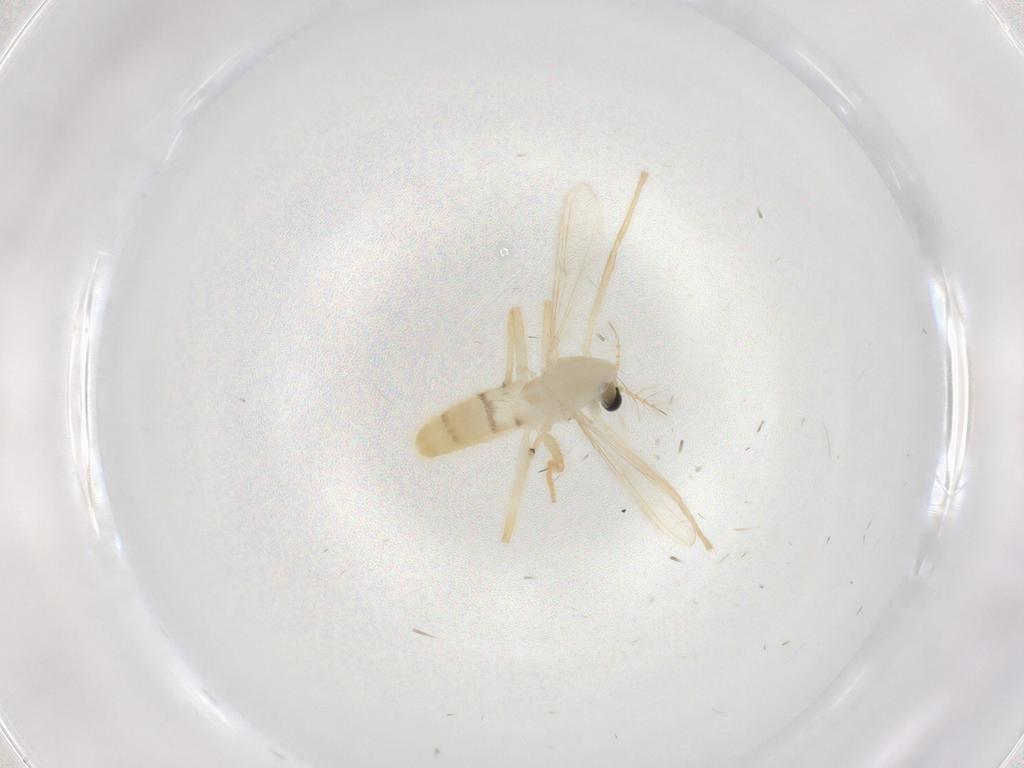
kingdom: Animalia
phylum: Arthropoda
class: Insecta
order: Diptera
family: Chironomidae
